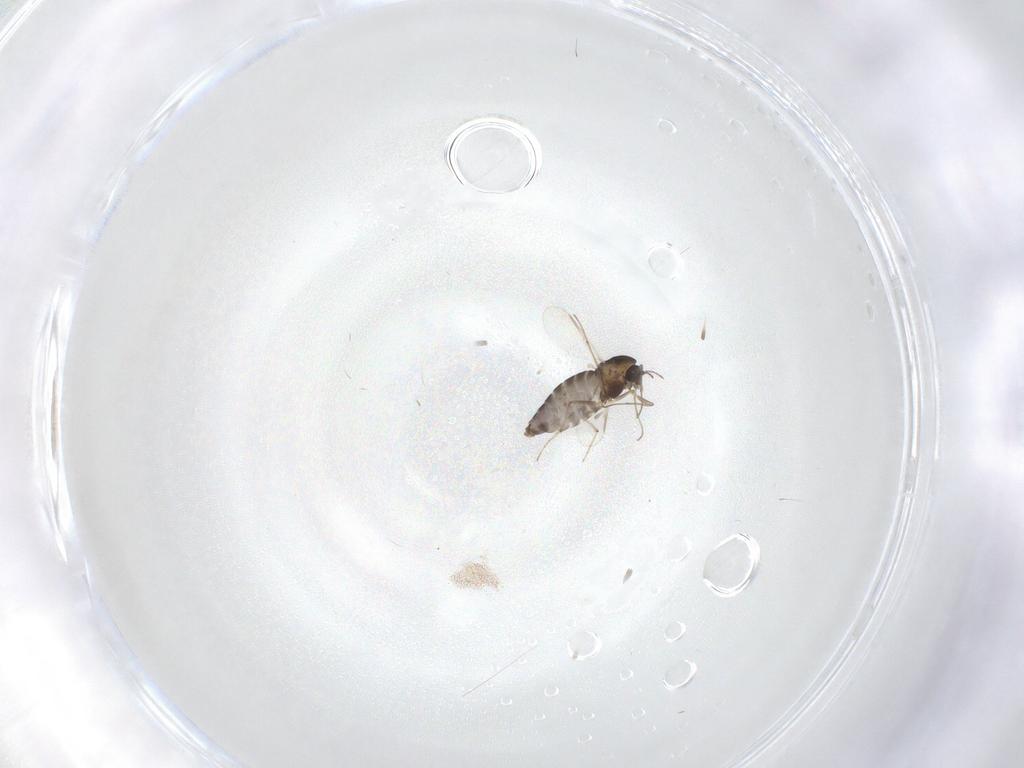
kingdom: Animalia
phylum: Arthropoda
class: Insecta
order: Diptera
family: Chironomidae
